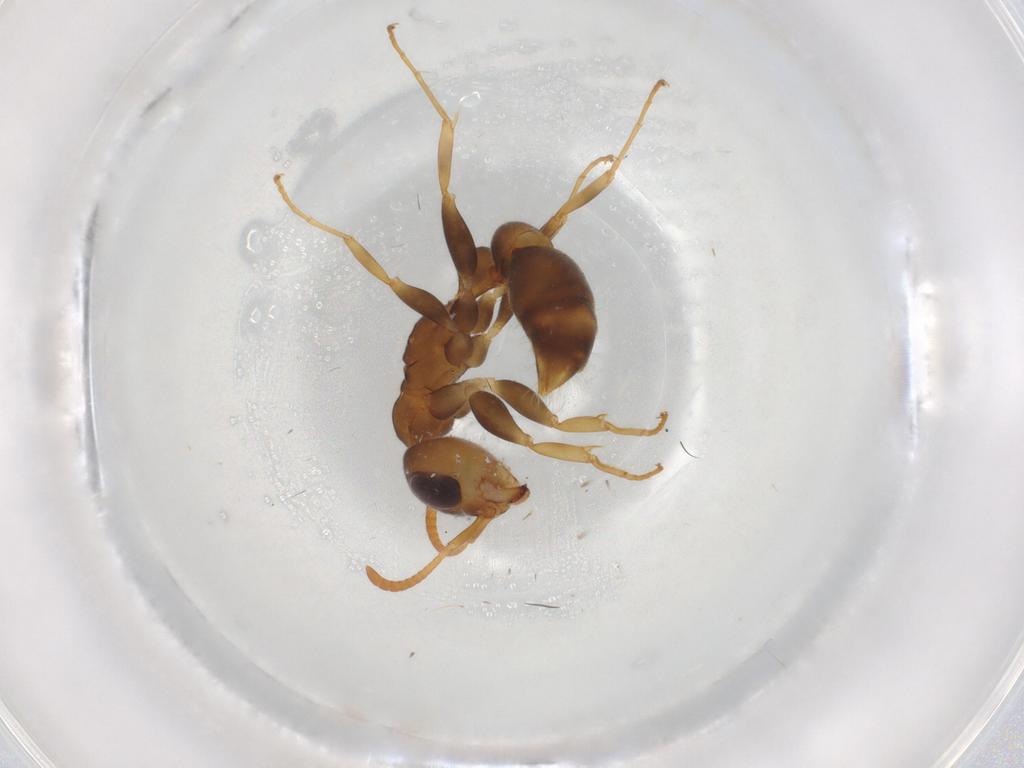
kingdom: Animalia
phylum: Arthropoda
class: Insecta
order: Hymenoptera
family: Formicidae
